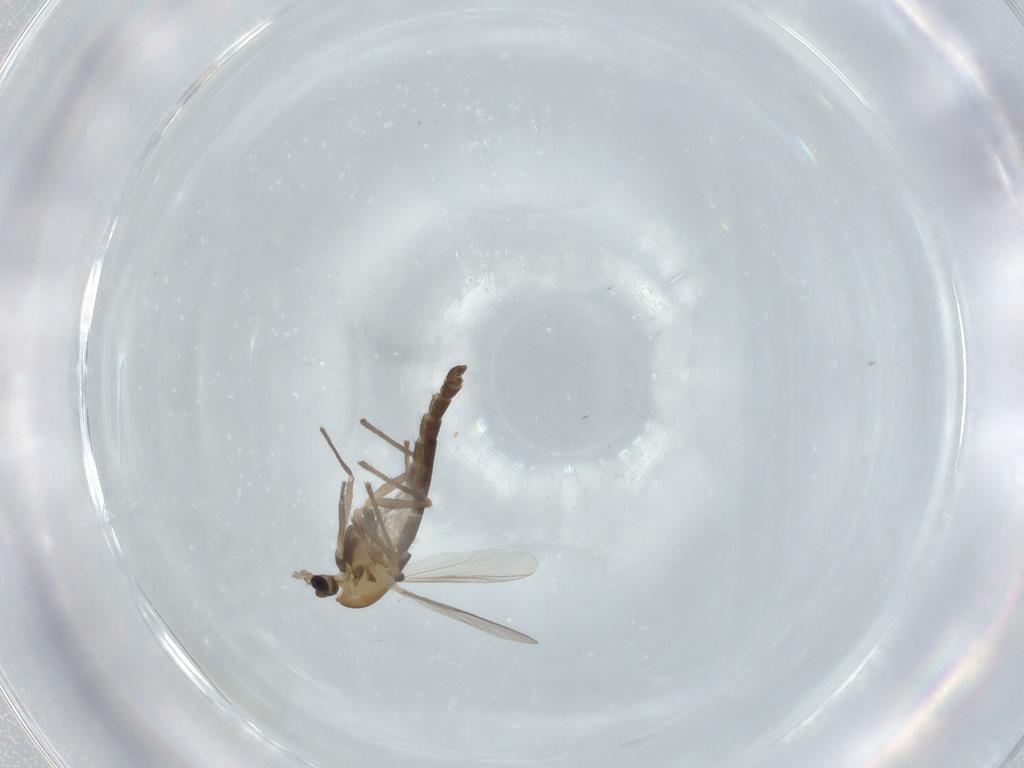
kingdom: Animalia
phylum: Arthropoda
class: Insecta
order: Diptera
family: Chironomidae
